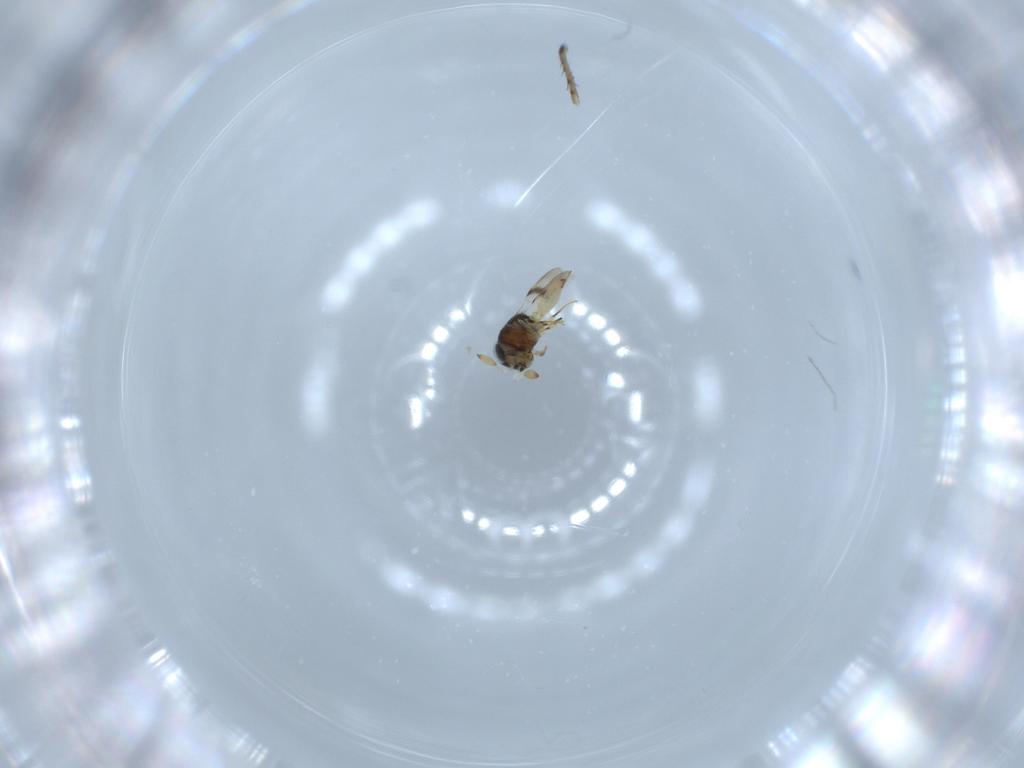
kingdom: Animalia
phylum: Arthropoda
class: Insecta
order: Hymenoptera
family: Scelionidae
